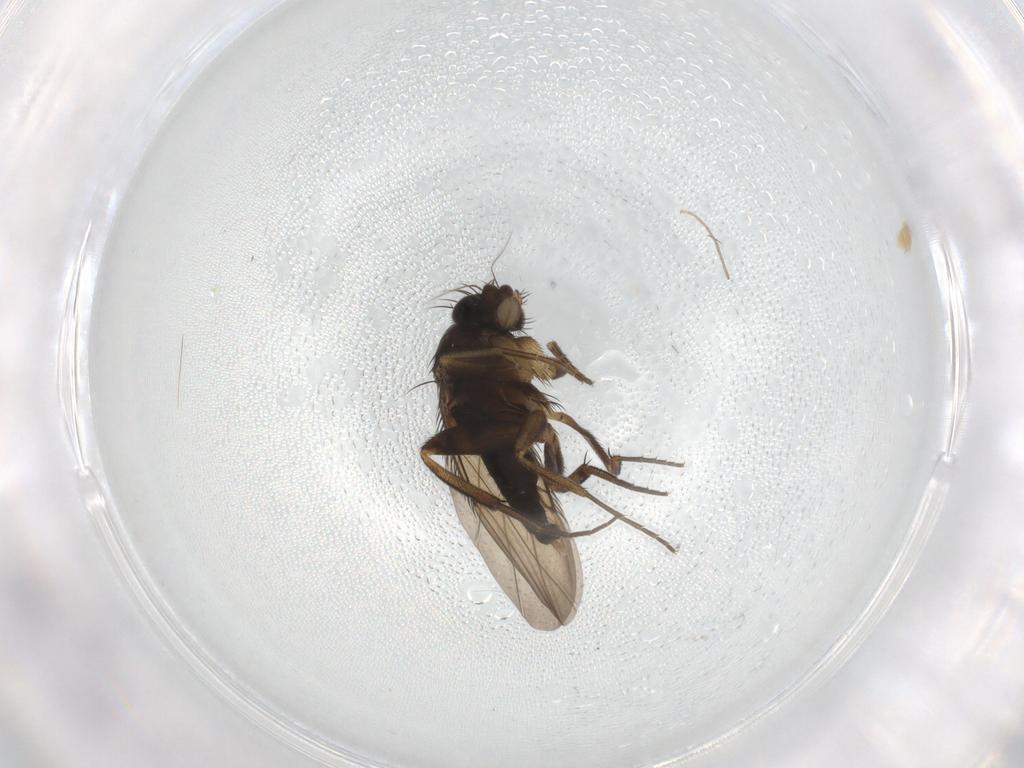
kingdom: Animalia
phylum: Arthropoda
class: Insecta
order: Diptera
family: Phoridae
